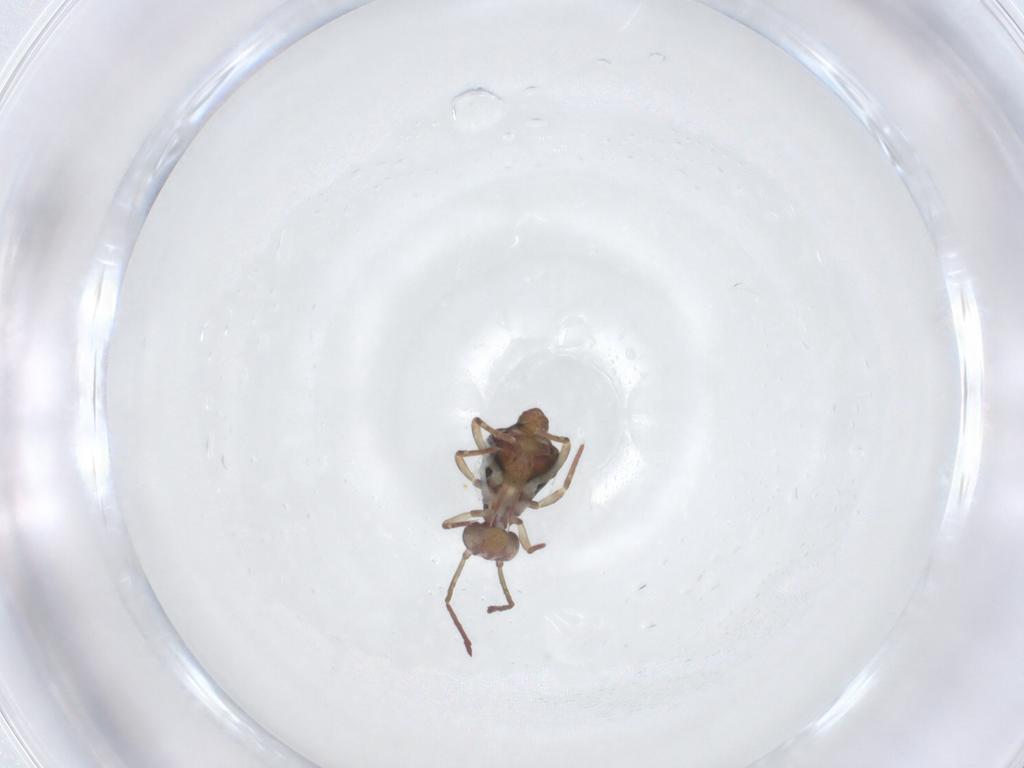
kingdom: Animalia
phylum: Arthropoda
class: Collembola
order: Symphypleona
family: Dicyrtomidae
